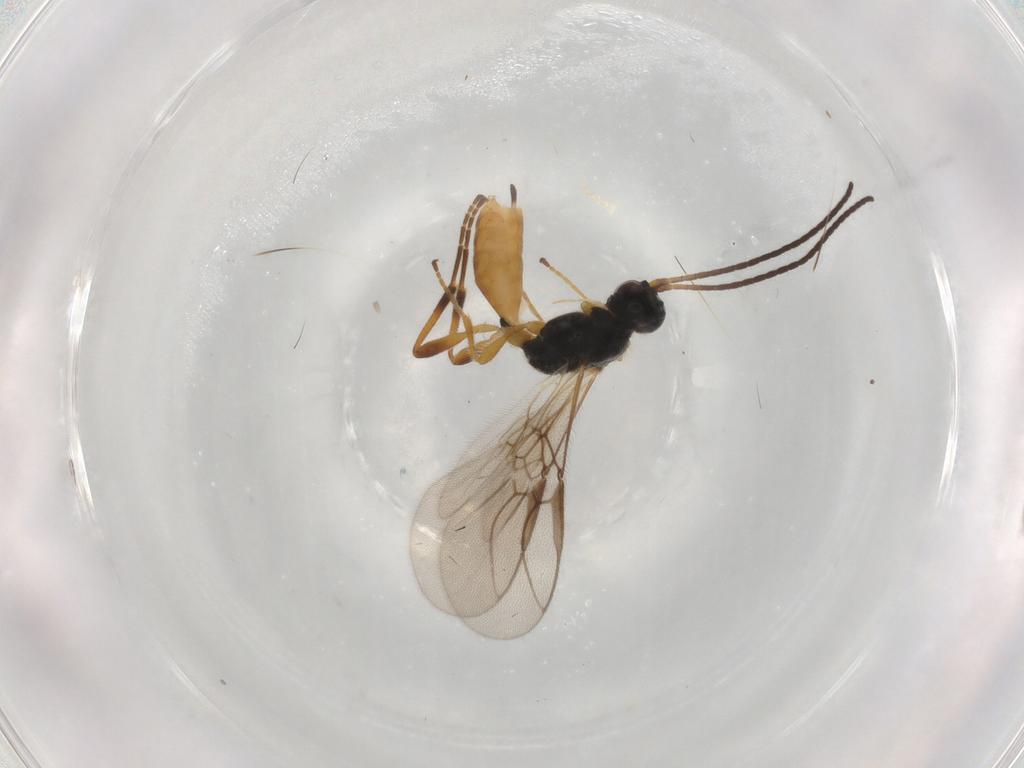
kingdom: Animalia
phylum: Arthropoda
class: Insecta
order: Hymenoptera
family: Braconidae
